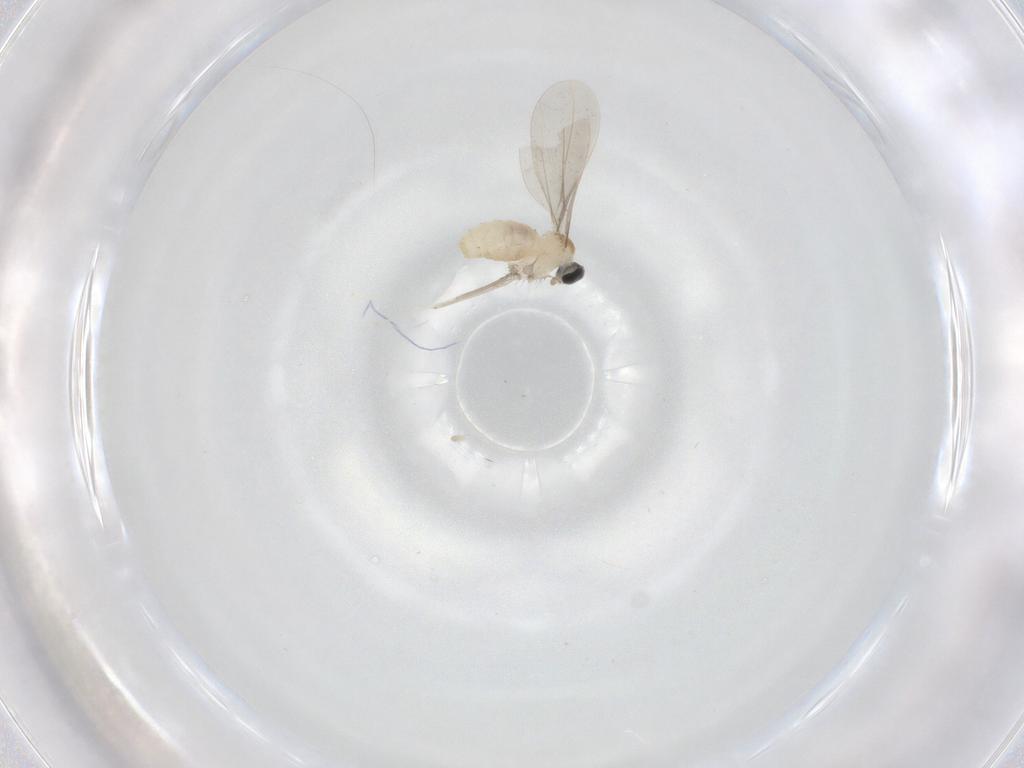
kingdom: Animalia
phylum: Arthropoda
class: Insecta
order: Diptera
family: Cecidomyiidae
